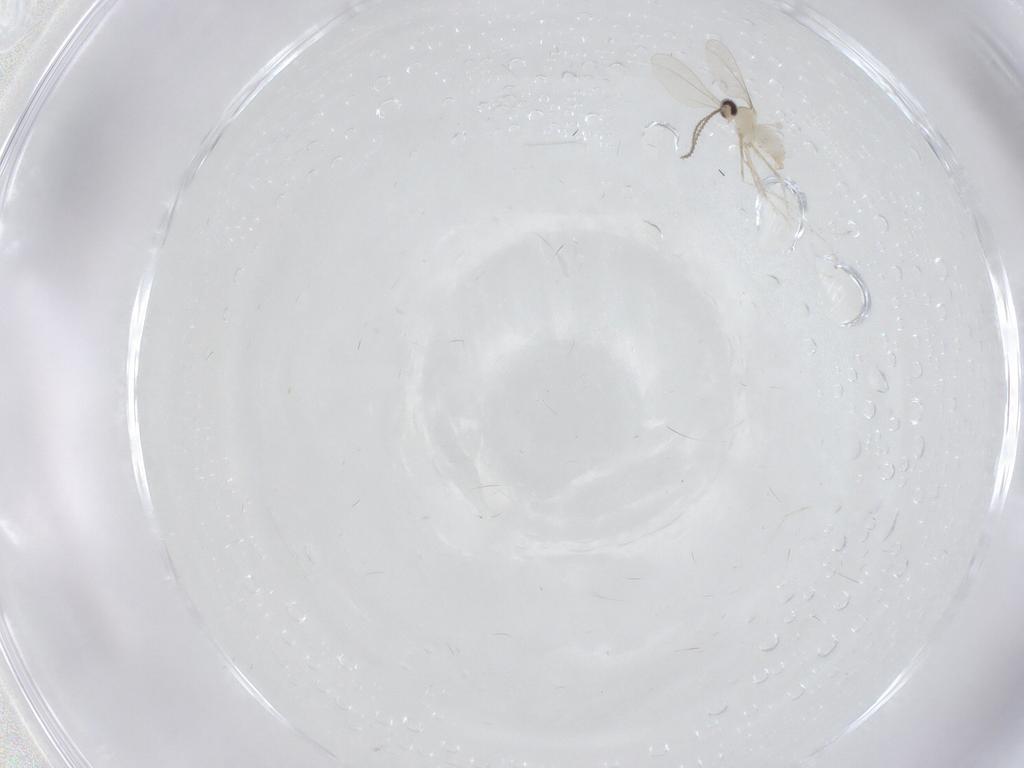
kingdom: Animalia
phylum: Arthropoda
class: Insecta
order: Diptera
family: Cecidomyiidae
